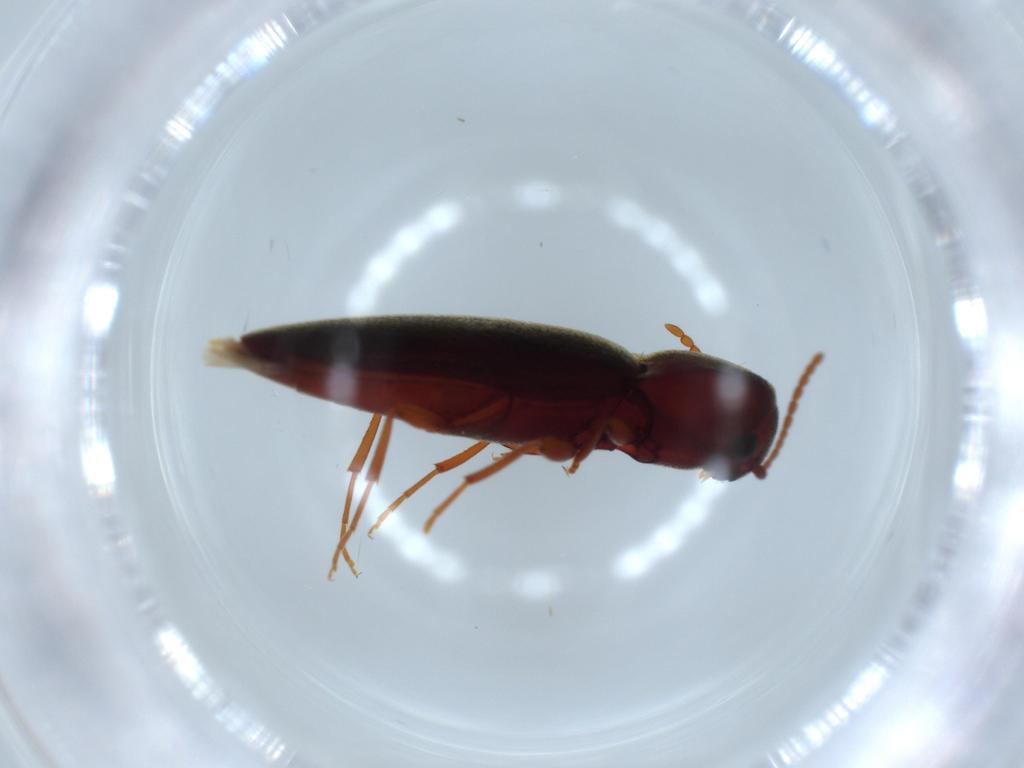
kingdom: Animalia
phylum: Arthropoda
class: Insecta
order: Coleoptera
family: Eucnemidae
